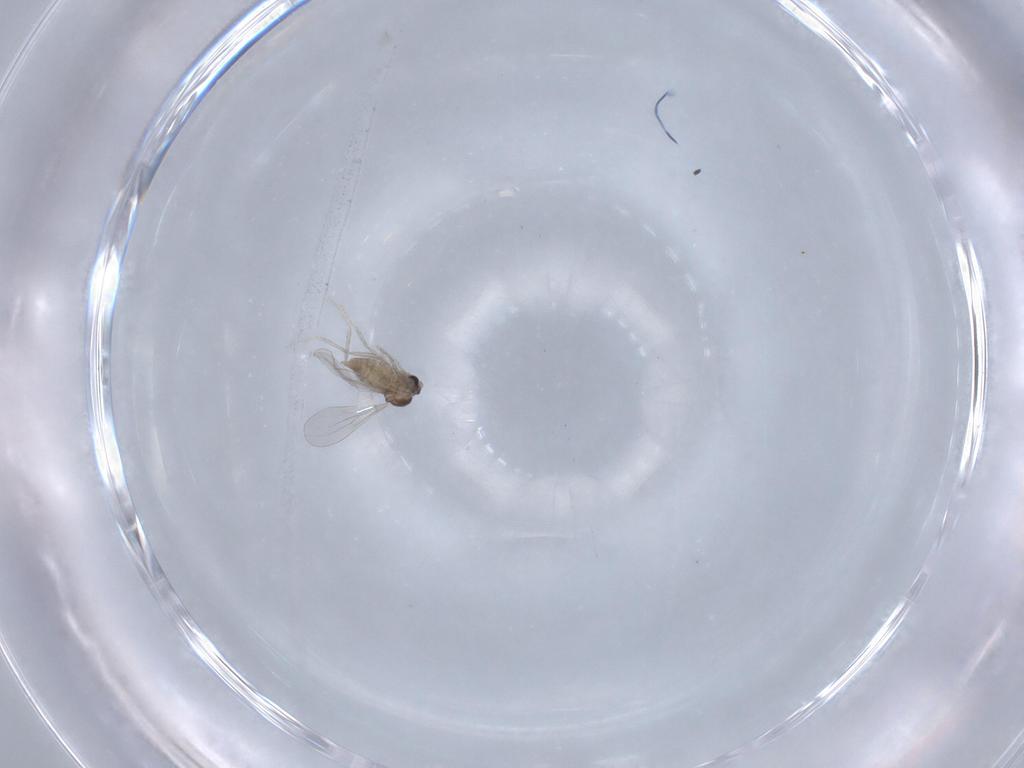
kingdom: Animalia
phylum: Arthropoda
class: Insecta
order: Diptera
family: Cecidomyiidae
